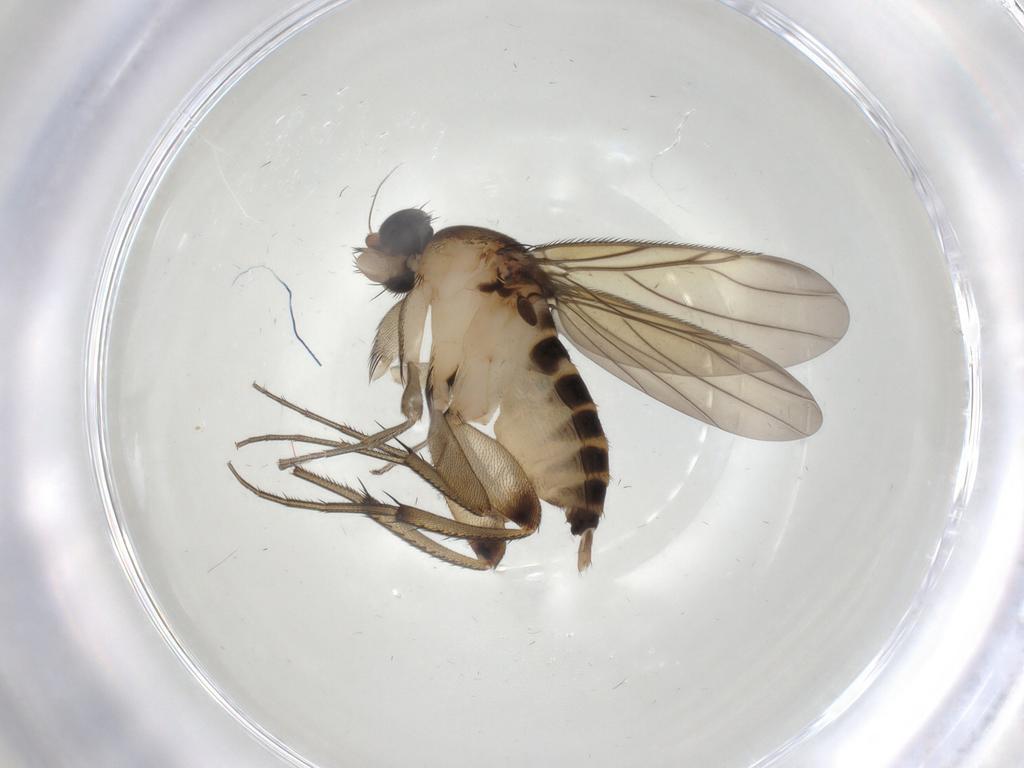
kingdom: Animalia
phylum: Arthropoda
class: Insecta
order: Diptera
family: Phoridae
